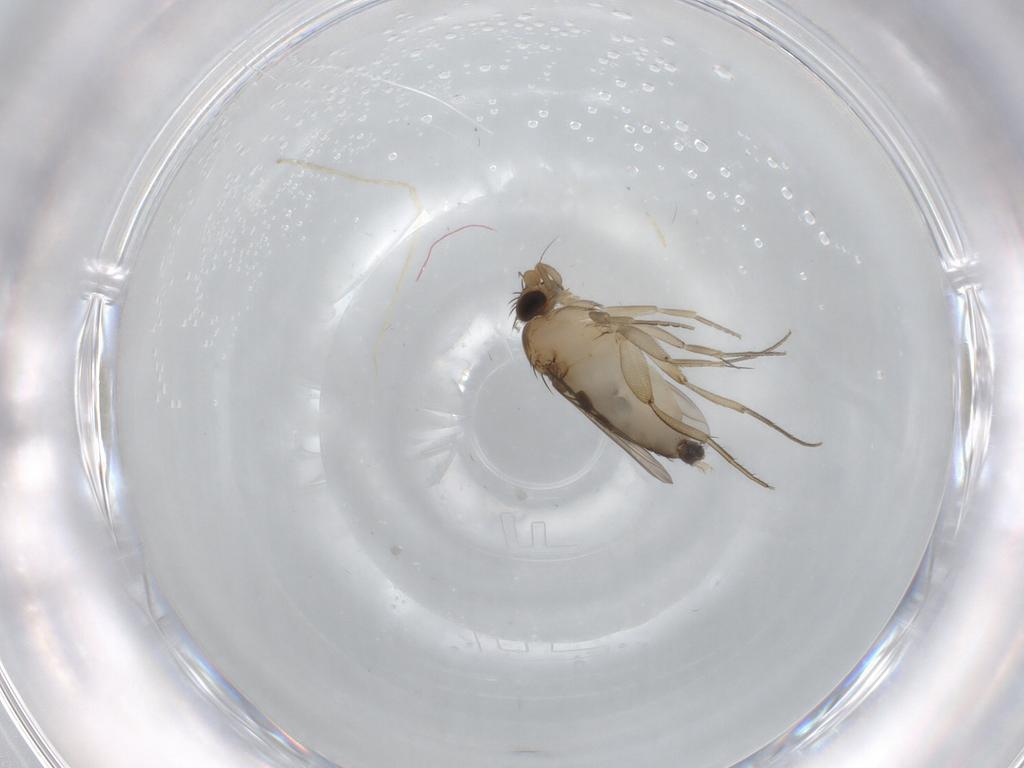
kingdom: Animalia
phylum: Arthropoda
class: Insecta
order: Diptera
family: Phoridae
